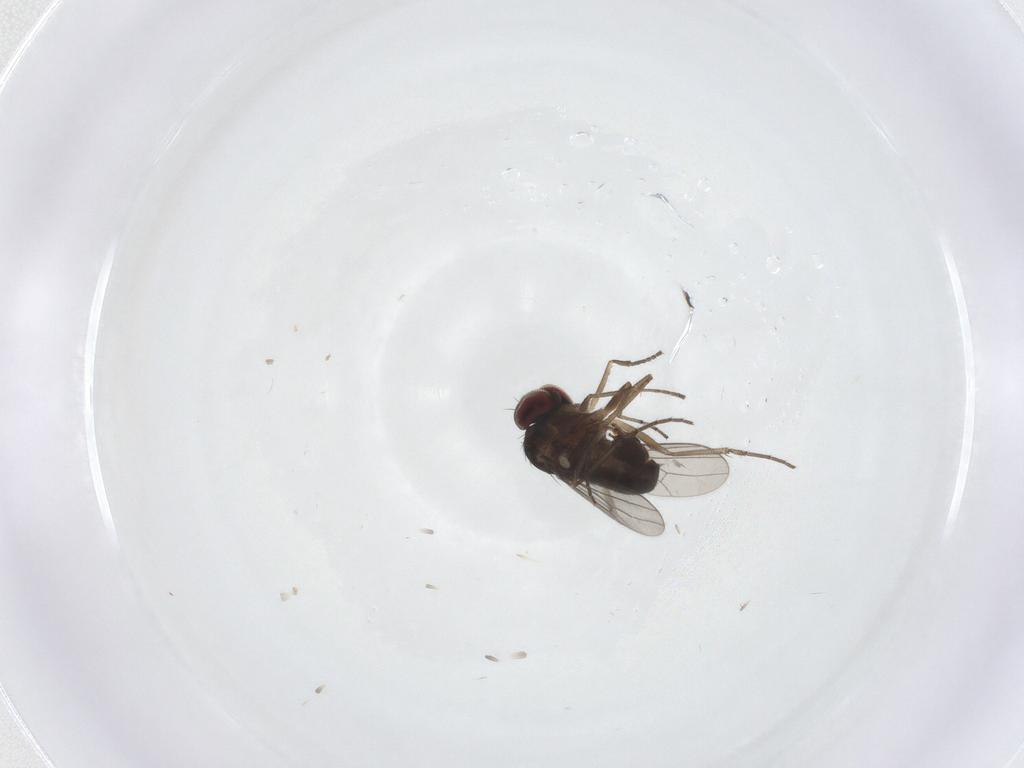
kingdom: Animalia
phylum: Arthropoda
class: Insecta
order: Diptera
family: Dolichopodidae
